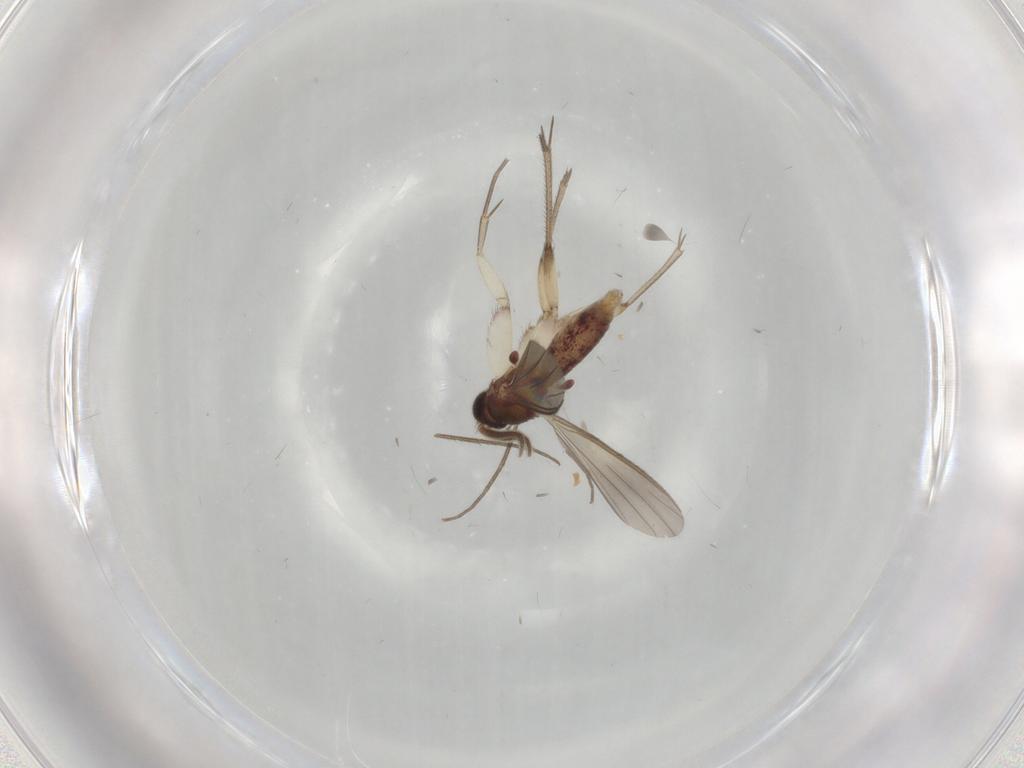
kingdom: Animalia
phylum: Arthropoda
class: Insecta
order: Diptera
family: Mycetophilidae
